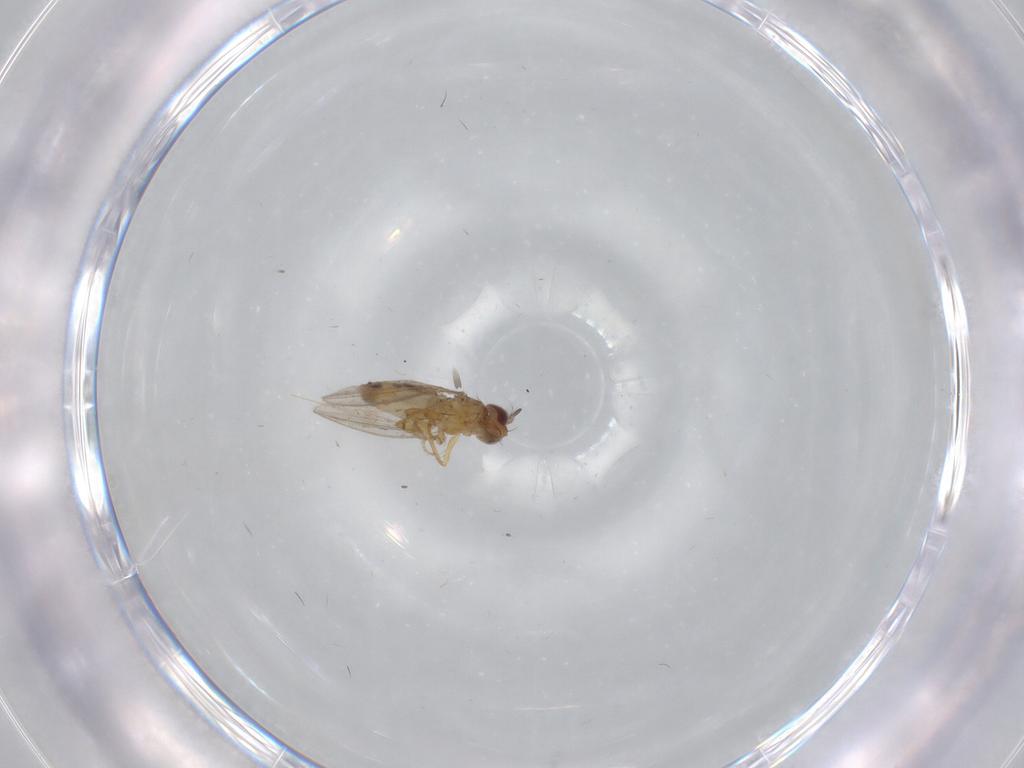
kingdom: Animalia
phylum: Arthropoda
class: Insecta
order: Diptera
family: Periscelididae
